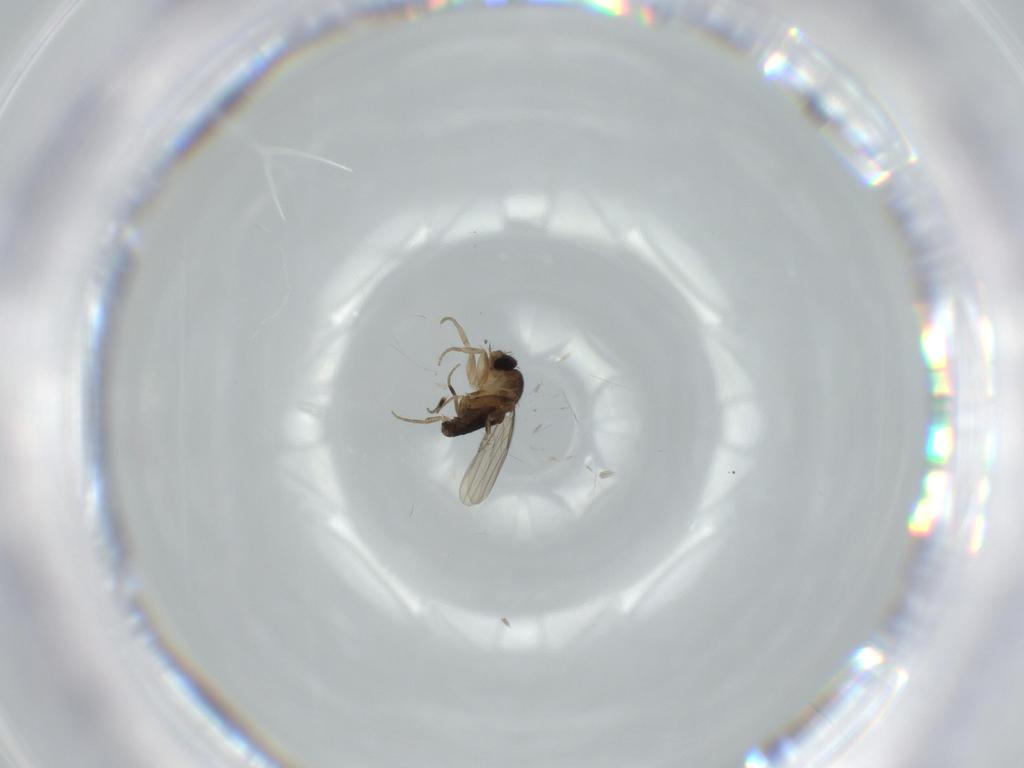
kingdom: Animalia
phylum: Arthropoda
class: Insecta
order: Diptera
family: Phoridae
